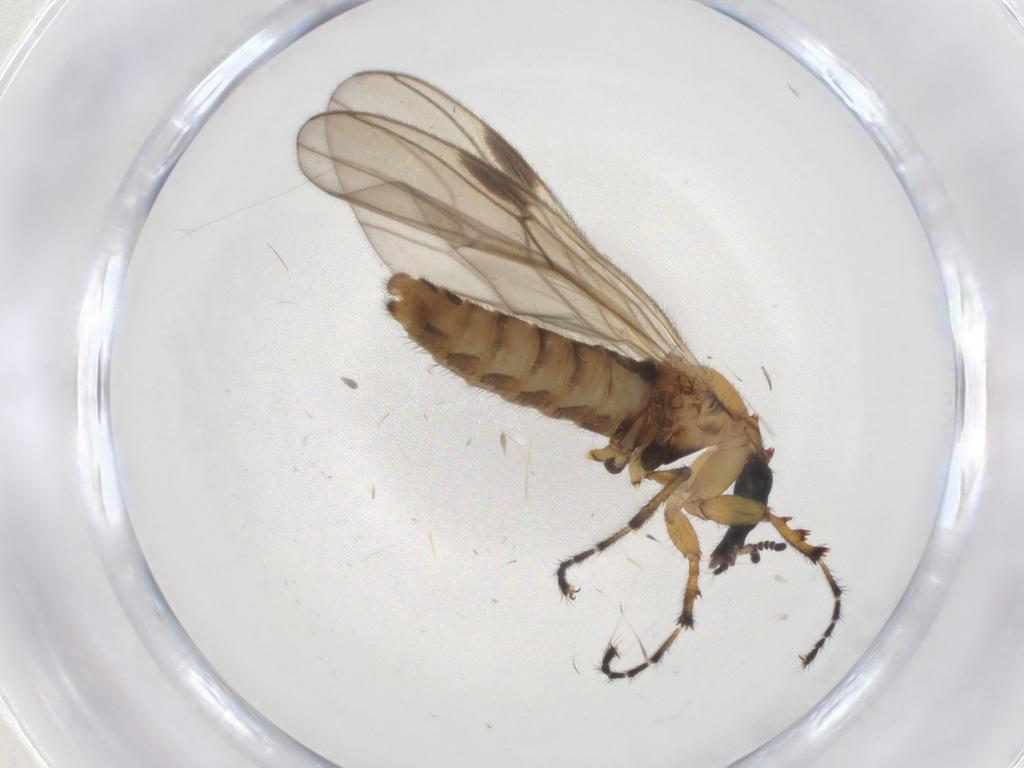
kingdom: Animalia
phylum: Arthropoda
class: Insecta
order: Diptera
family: Bibionidae
